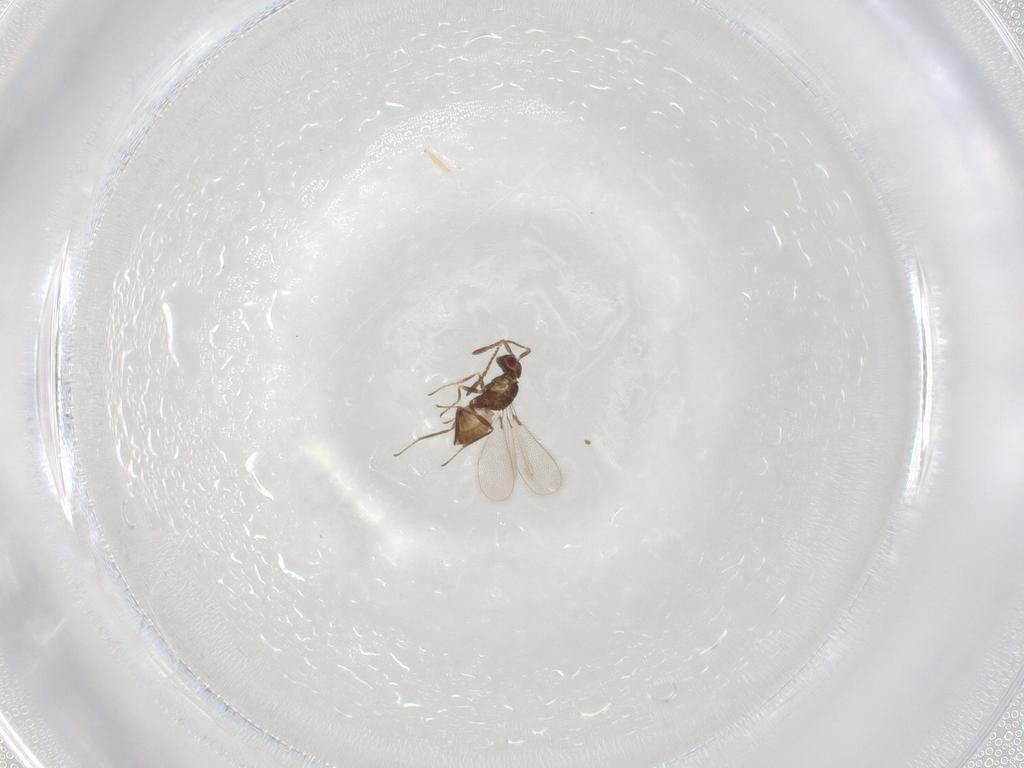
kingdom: Animalia
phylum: Arthropoda
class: Insecta
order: Hymenoptera
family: Mymaridae
